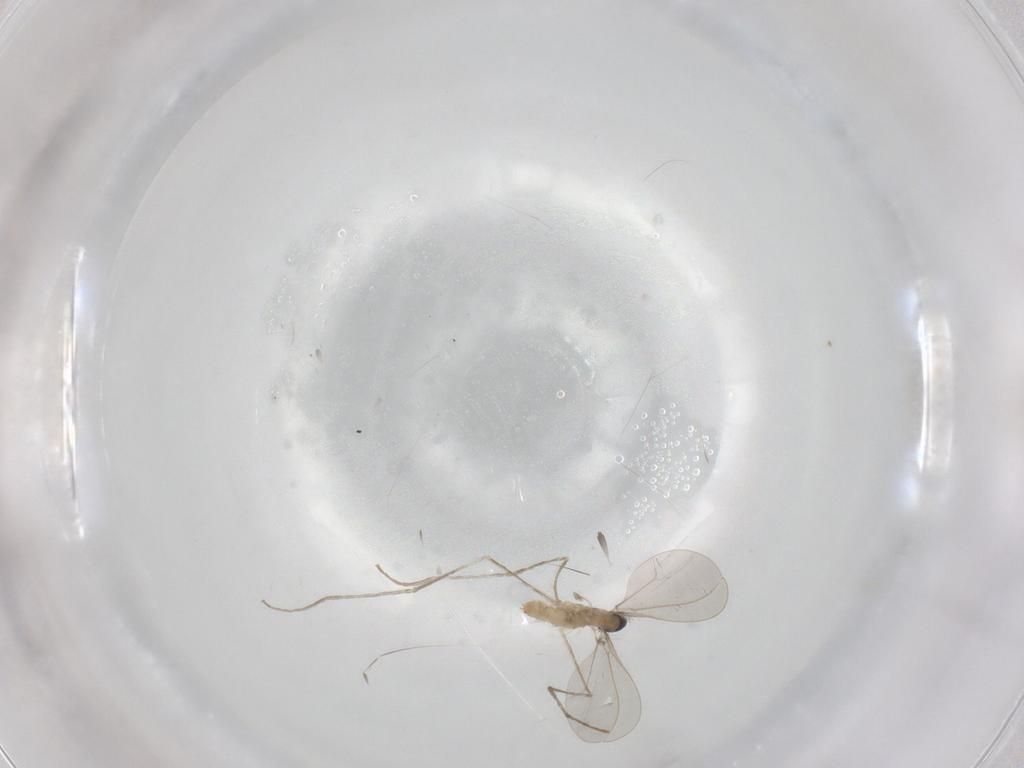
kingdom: Animalia
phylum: Arthropoda
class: Insecta
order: Diptera
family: Cecidomyiidae
